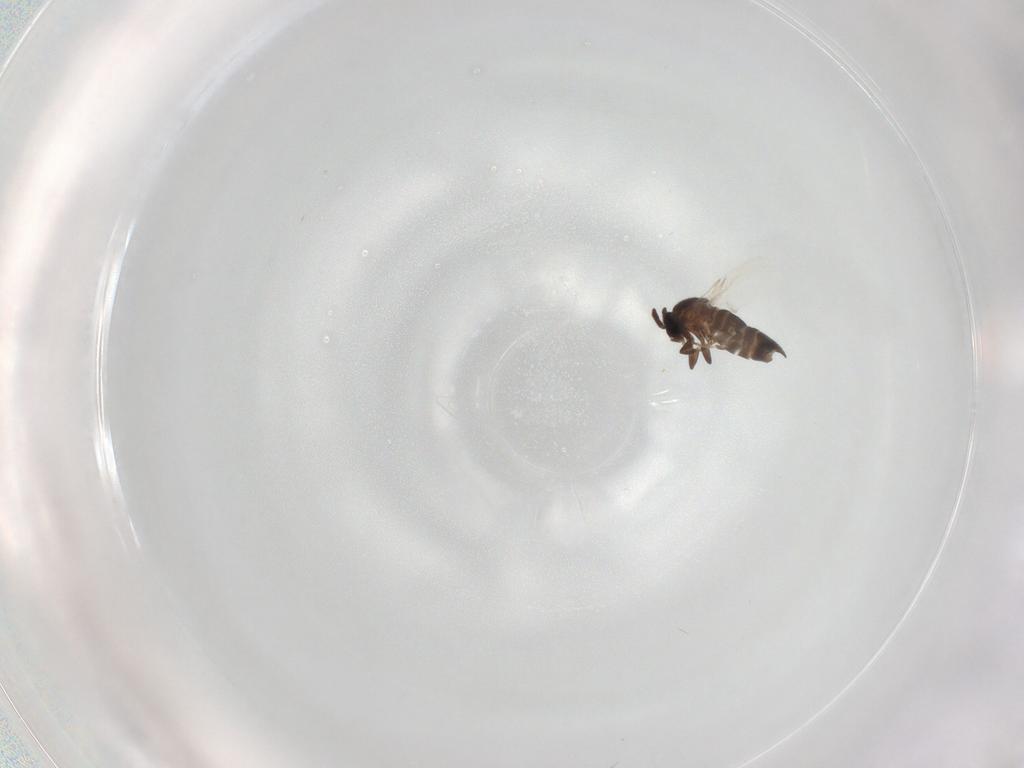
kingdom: Animalia
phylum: Arthropoda
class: Insecta
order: Diptera
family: Scatopsidae
